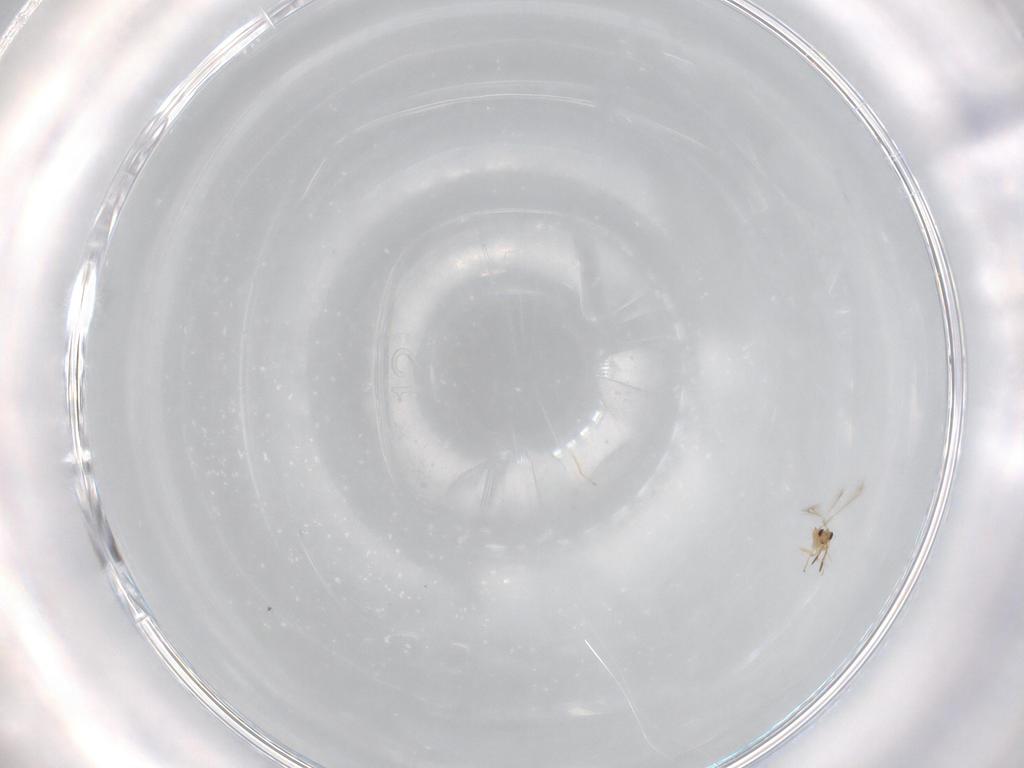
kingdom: Animalia
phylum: Arthropoda
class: Insecta
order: Hymenoptera
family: Mymaridae
